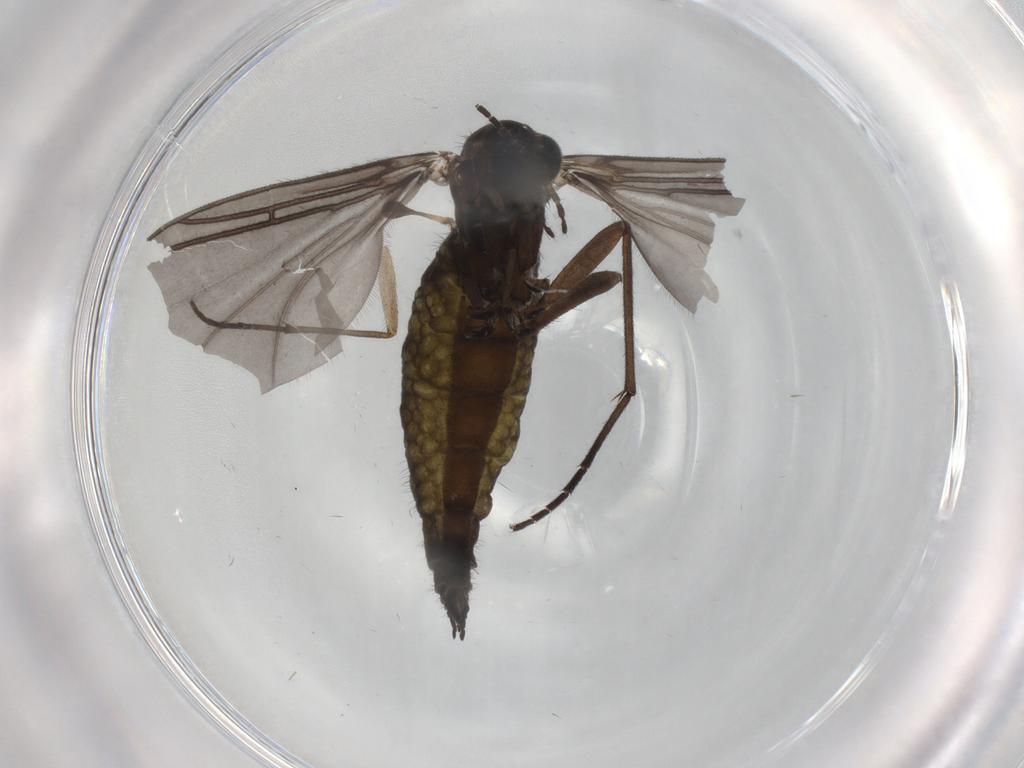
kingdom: Animalia
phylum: Arthropoda
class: Insecta
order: Diptera
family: Sciaridae
